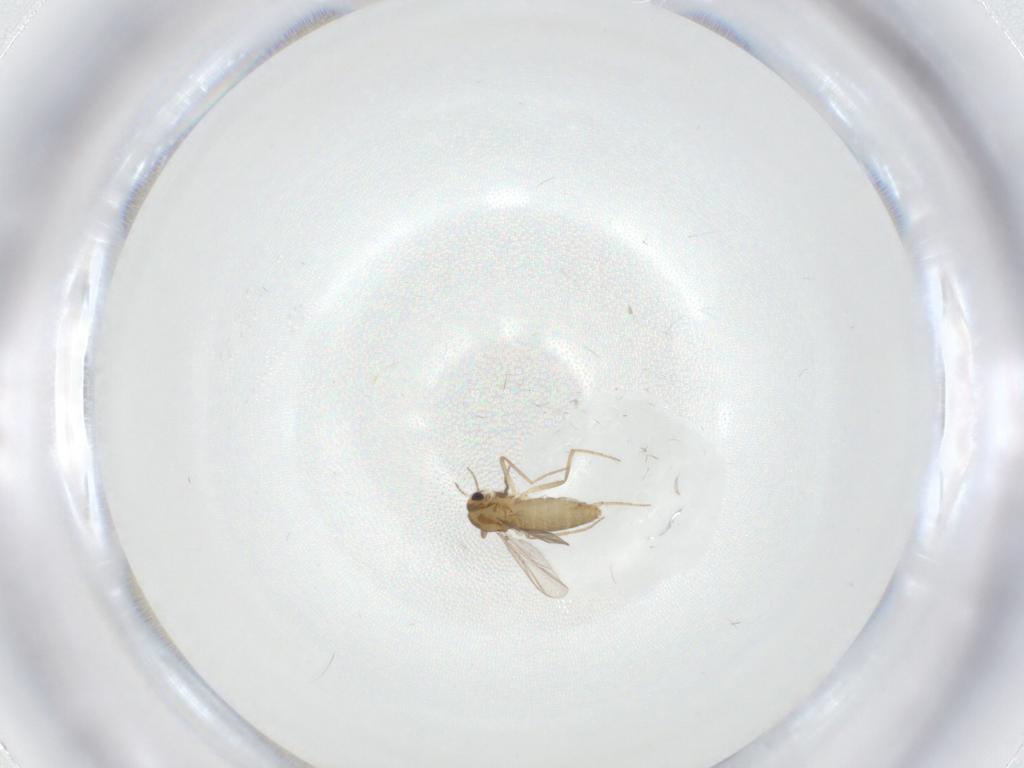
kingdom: Animalia
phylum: Arthropoda
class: Insecta
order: Diptera
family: Chironomidae
